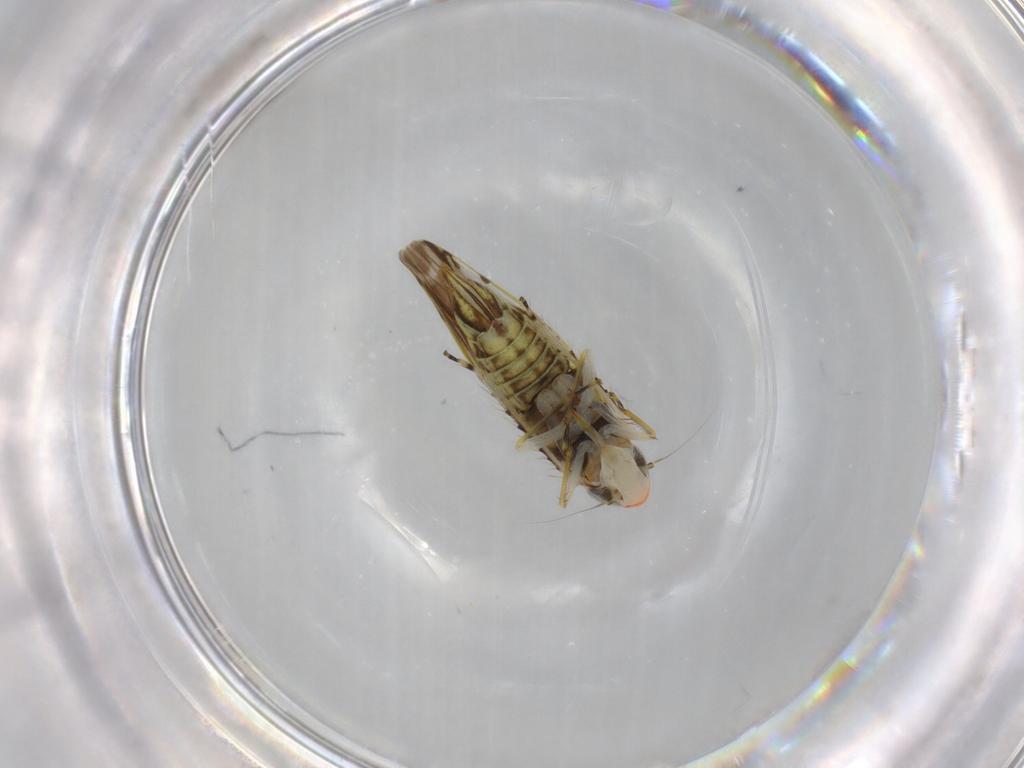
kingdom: Animalia
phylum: Arthropoda
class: Insecta
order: Hemiptera
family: Cicadellidae
